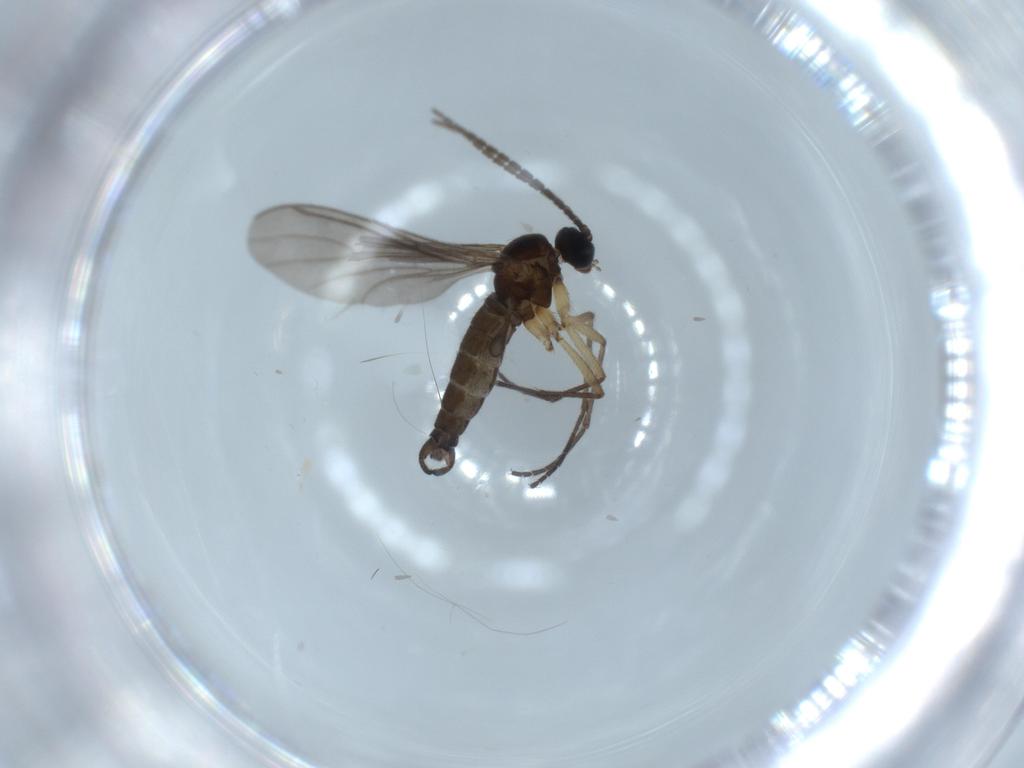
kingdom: Animalia
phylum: Arthropoda
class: Insecta
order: Diptera
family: Sciaridae
